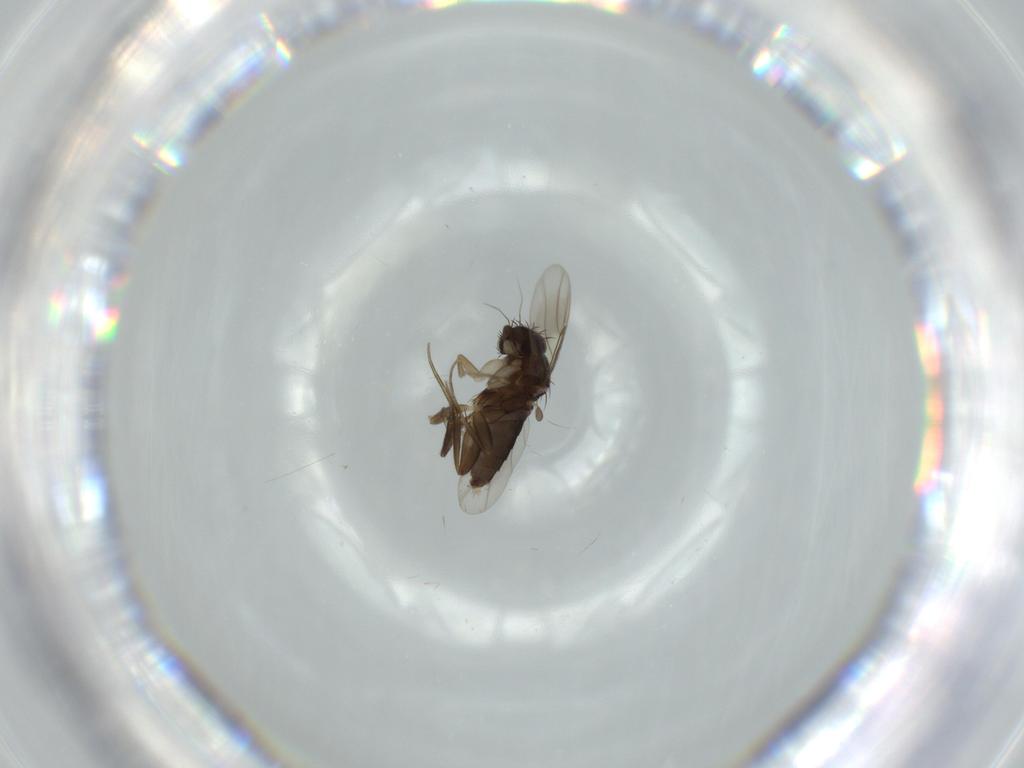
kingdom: Animalia
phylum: Arthropoda
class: Insecta
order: Diptera
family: Phoridae
